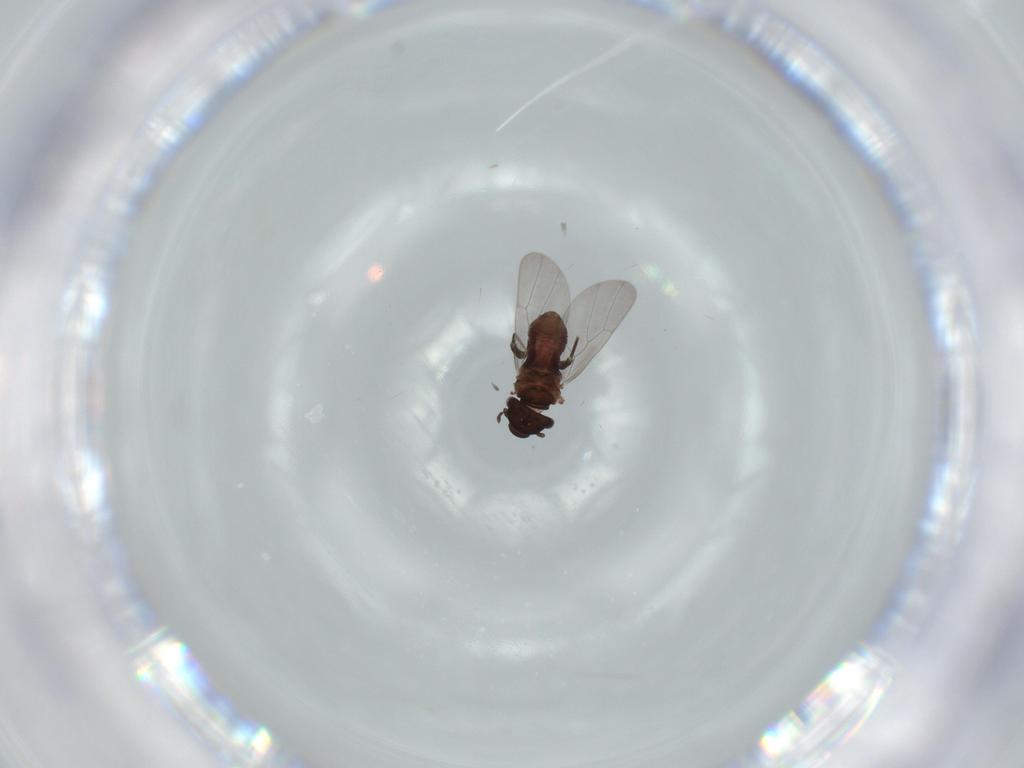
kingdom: Animalia
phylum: Arthropoda
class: Insecta
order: Psocodea
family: Lepidopsocidae
